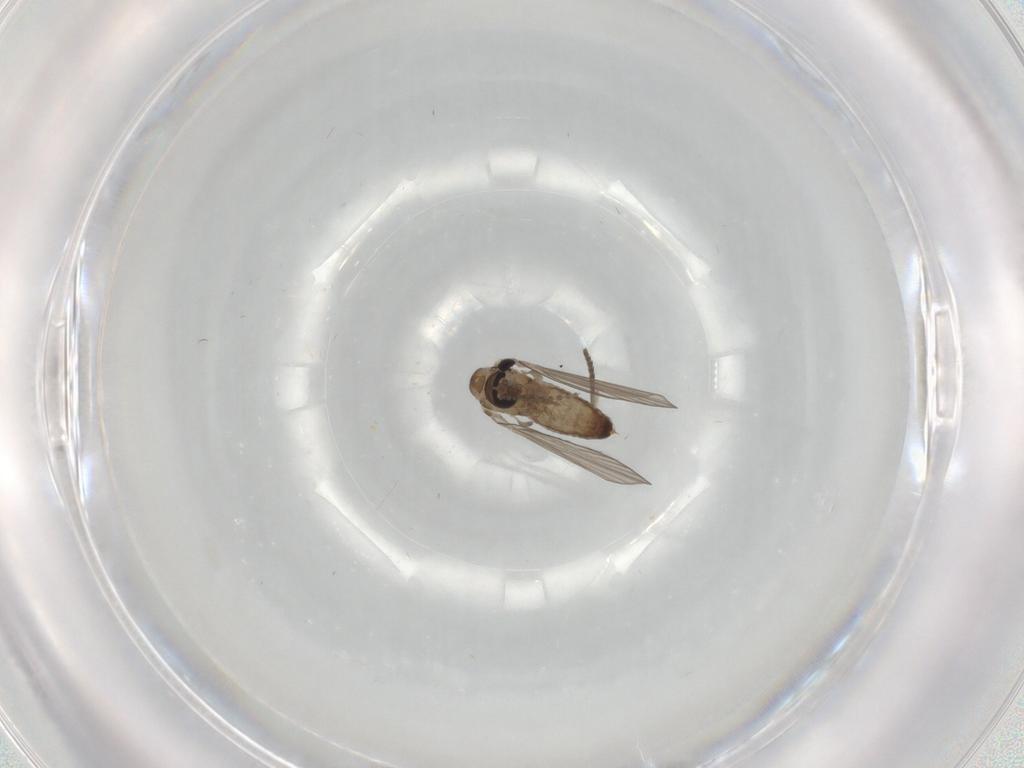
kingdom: Animalia
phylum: Arthropoda
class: Insecta
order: Diptera
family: Psychodidae
